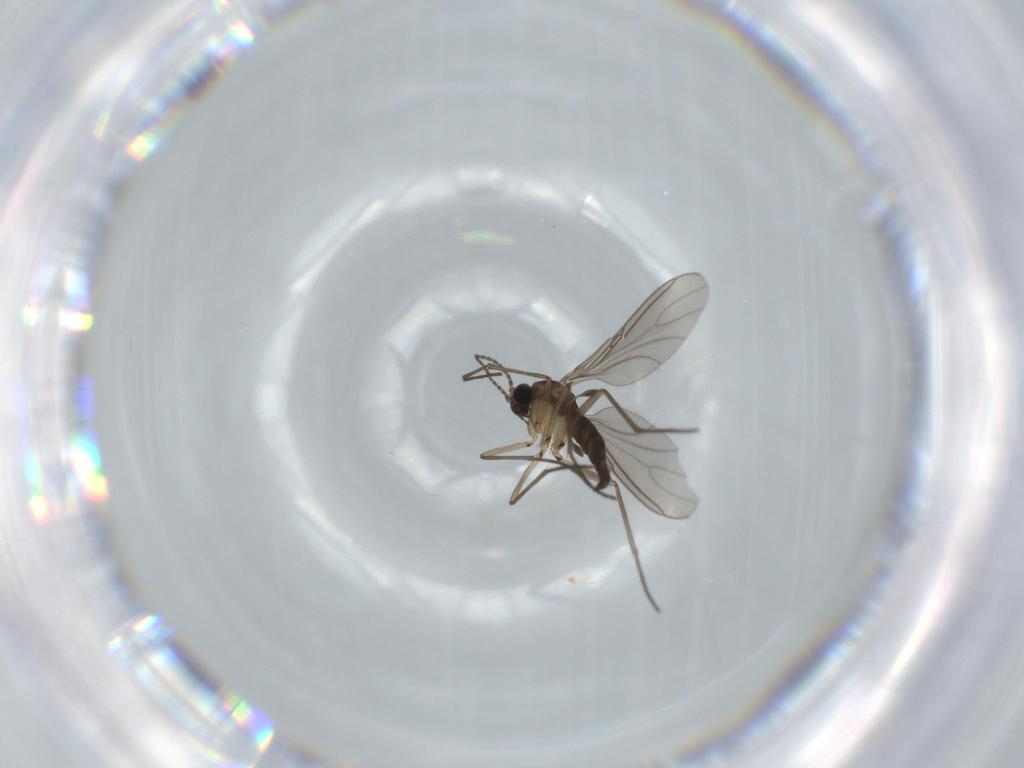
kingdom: Animalia
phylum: Arthropoda
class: Insecta
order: Diptera
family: Sciaridae
